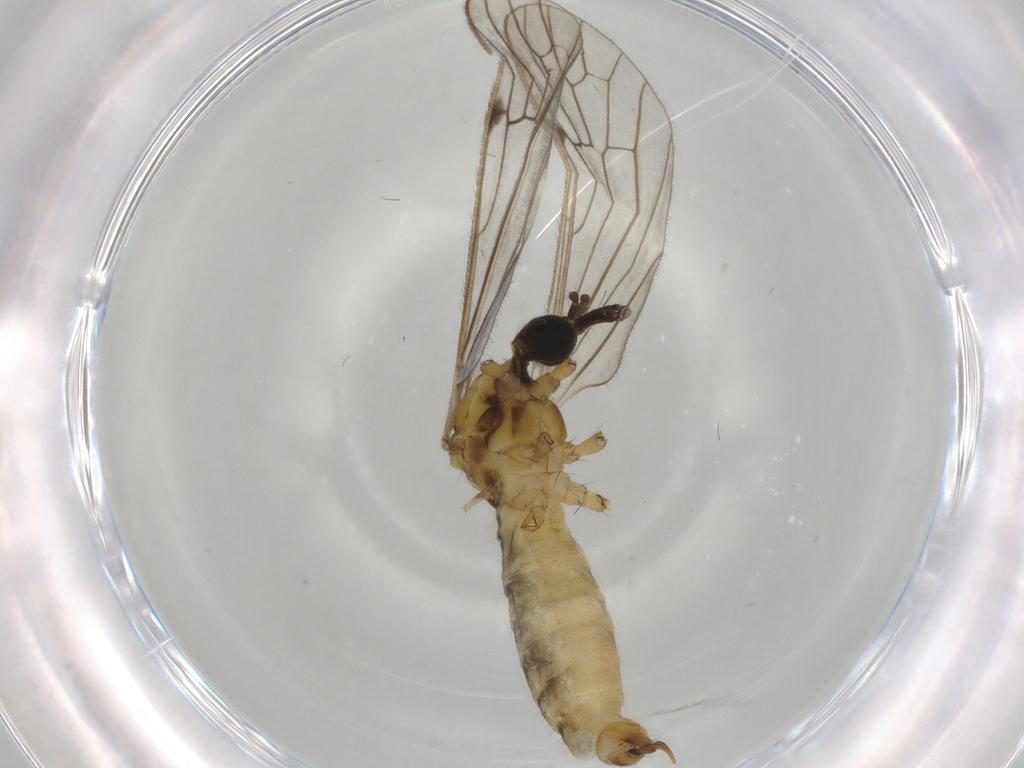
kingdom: Animalia
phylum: Arthropoda
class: Insecta
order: Diptera
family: Limoniidae
